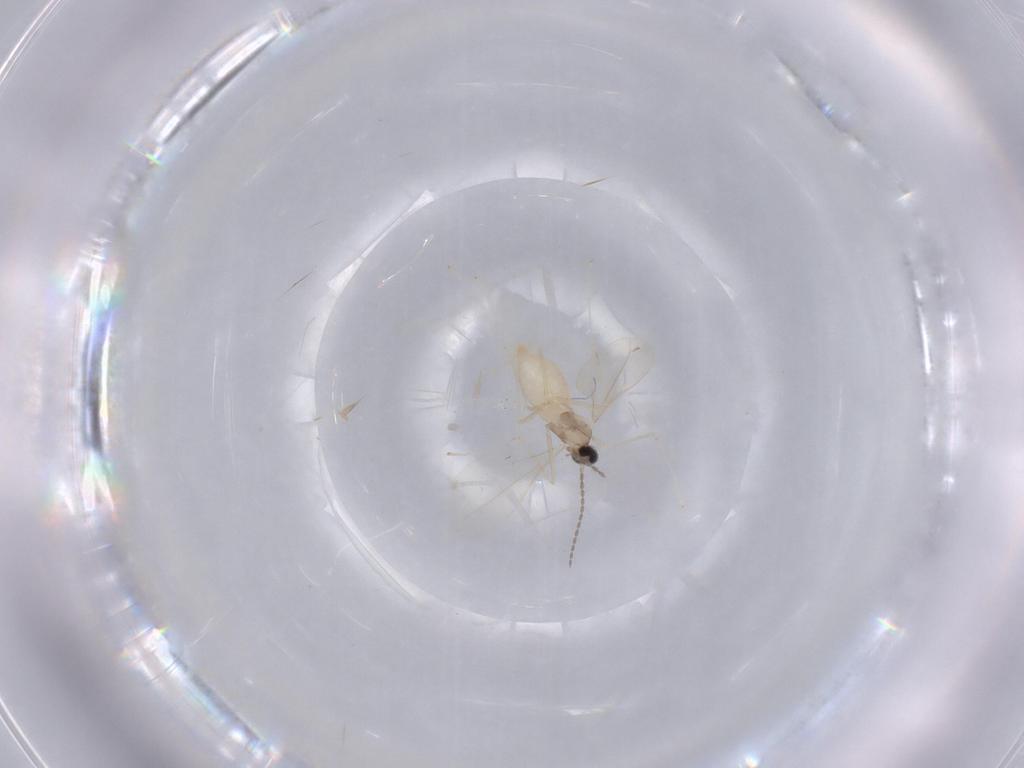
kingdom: Animalia
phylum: Arthropoda
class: Insecta
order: Diptera
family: Cecidomyiidae
